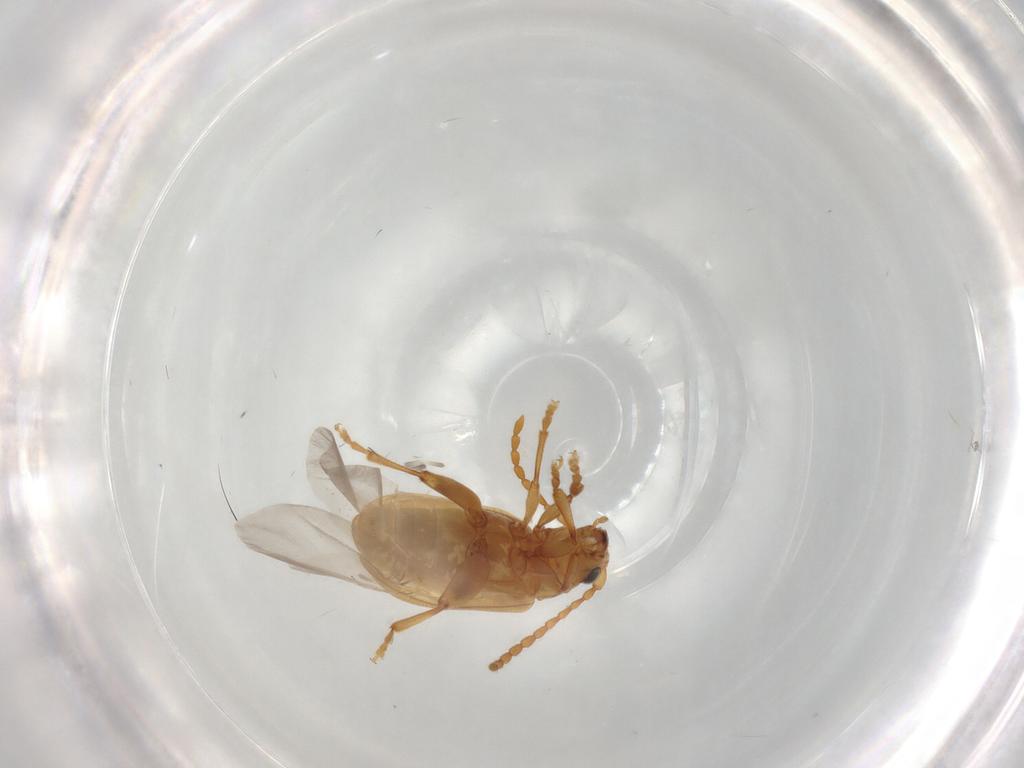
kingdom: Animalia
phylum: Arthropoda
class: Insecta
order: Coleoptera
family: Chrysomelidae
